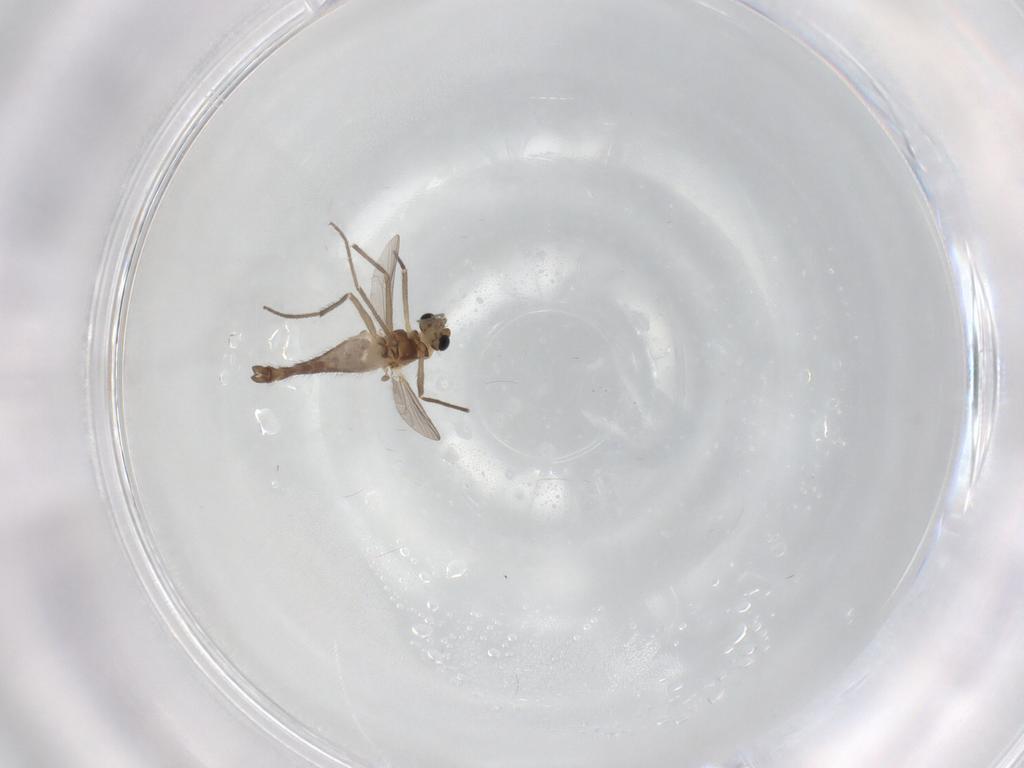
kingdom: Animalia
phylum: Arthropoda
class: Insecta
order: Diptera
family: Chironomidae
